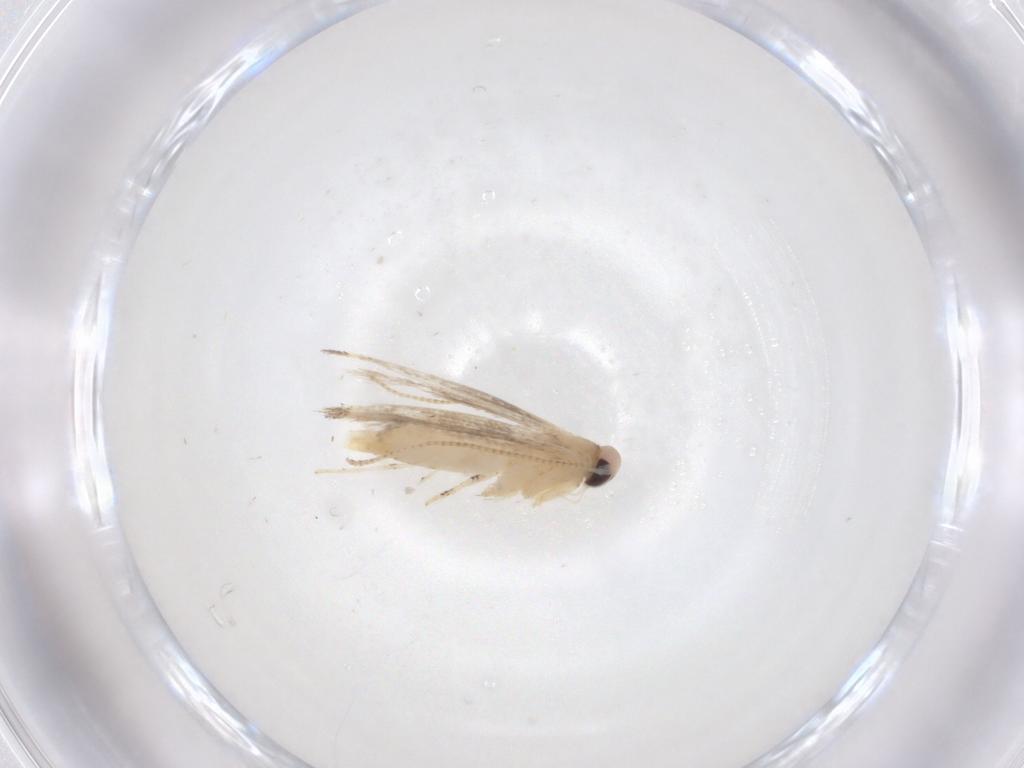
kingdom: Animalia
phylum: Arthropoda
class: Insecta
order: Lepidoptera
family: Gracillariidae
